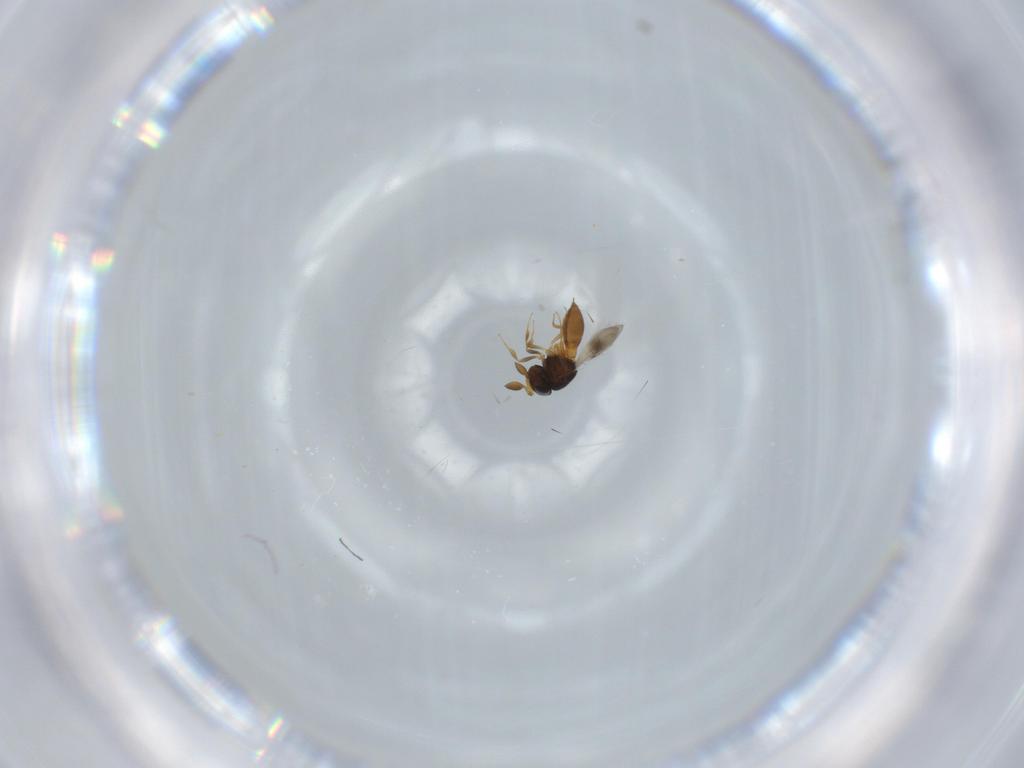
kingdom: Animalia
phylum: Arthropoda
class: Insecta
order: Hymenoptera
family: Scelionidae
